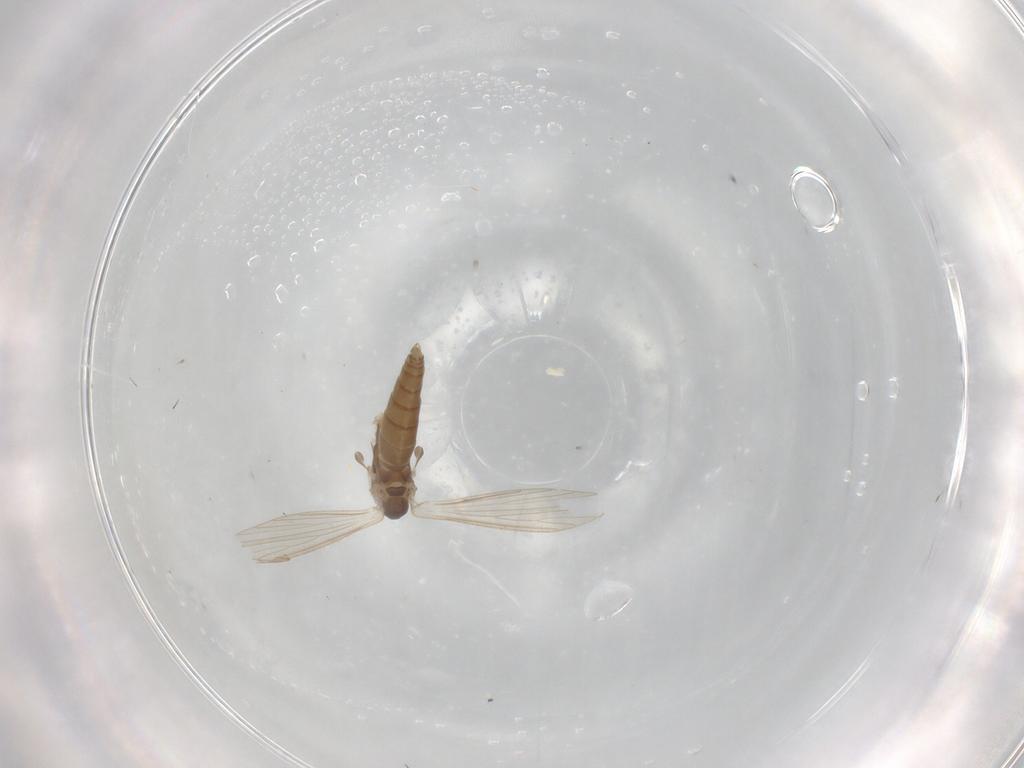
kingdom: Animalia
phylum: Arthropoda
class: Insecta
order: Diptera
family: Psychodidae
